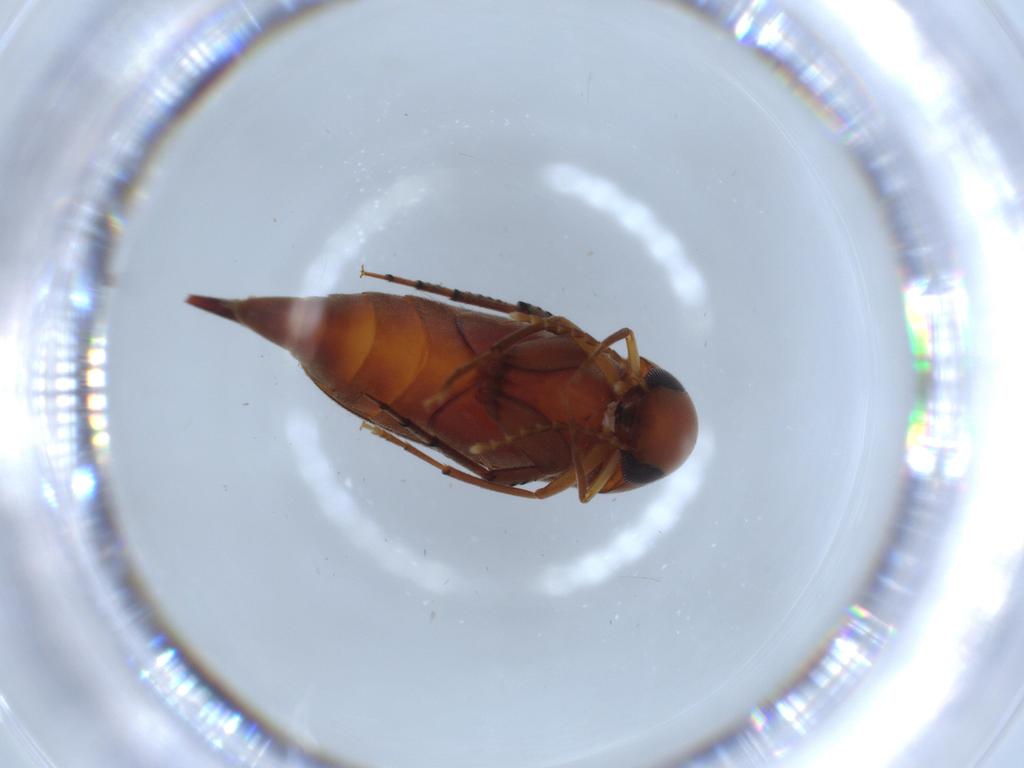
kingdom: Animalia
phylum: Arthropoda
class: Insecta
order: Coleoptera
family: Mordellidae
